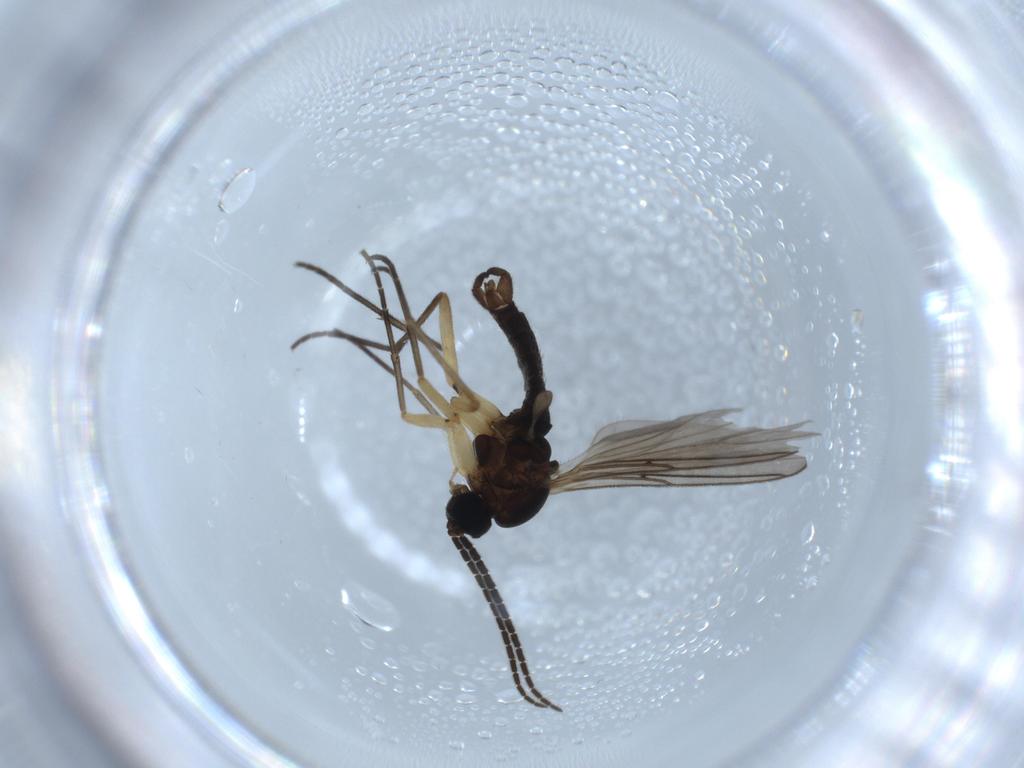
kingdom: Animalia
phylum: Arthropoda
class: Insecta
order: Diptera
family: Sciaridae
